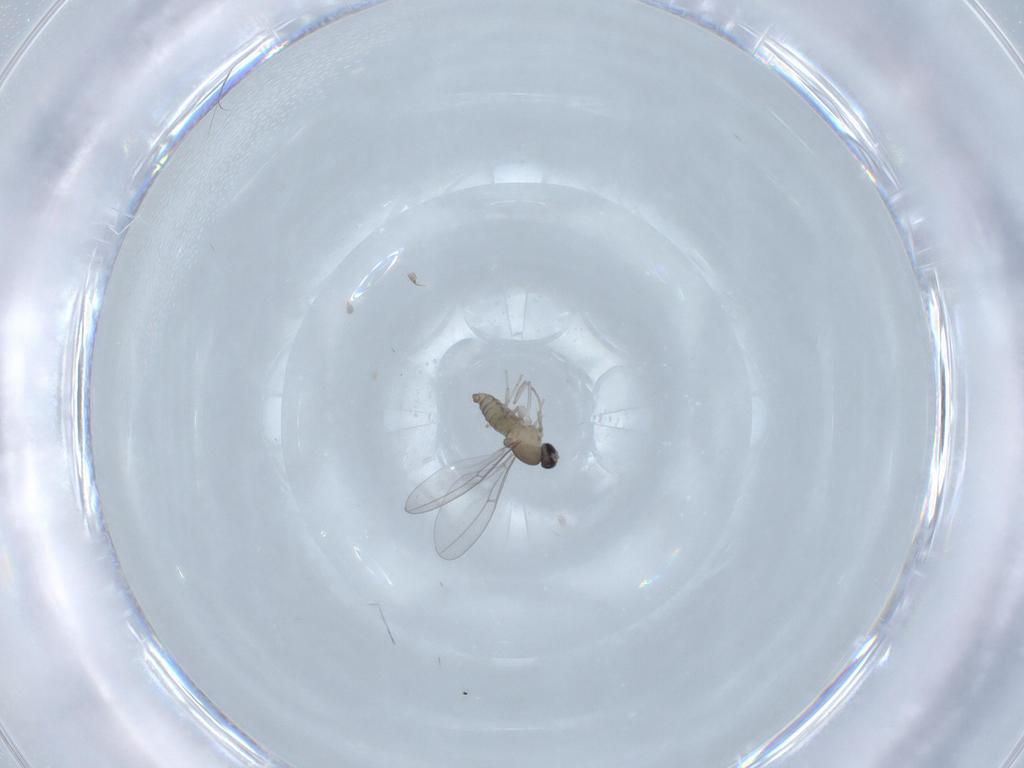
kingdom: Animalia
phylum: Arthropoda
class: Insecta
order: Diptera
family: Cecidomyiidae
